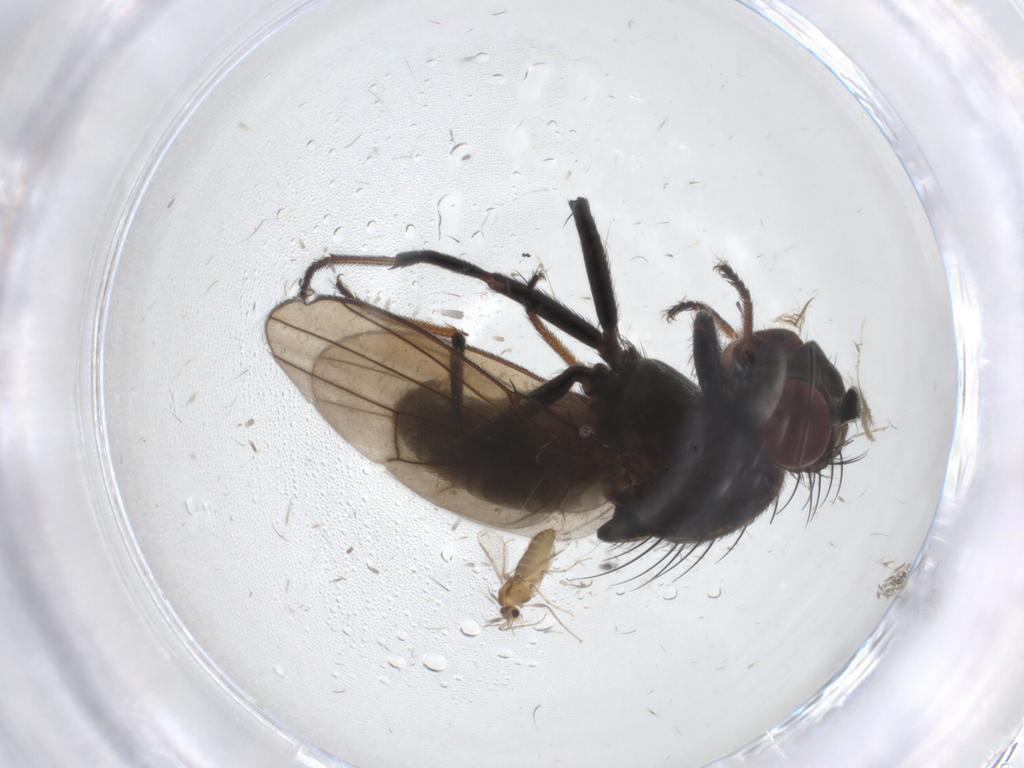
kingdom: Animalia
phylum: Arthropoda
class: Insecta
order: Diptera
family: Ephydridae
